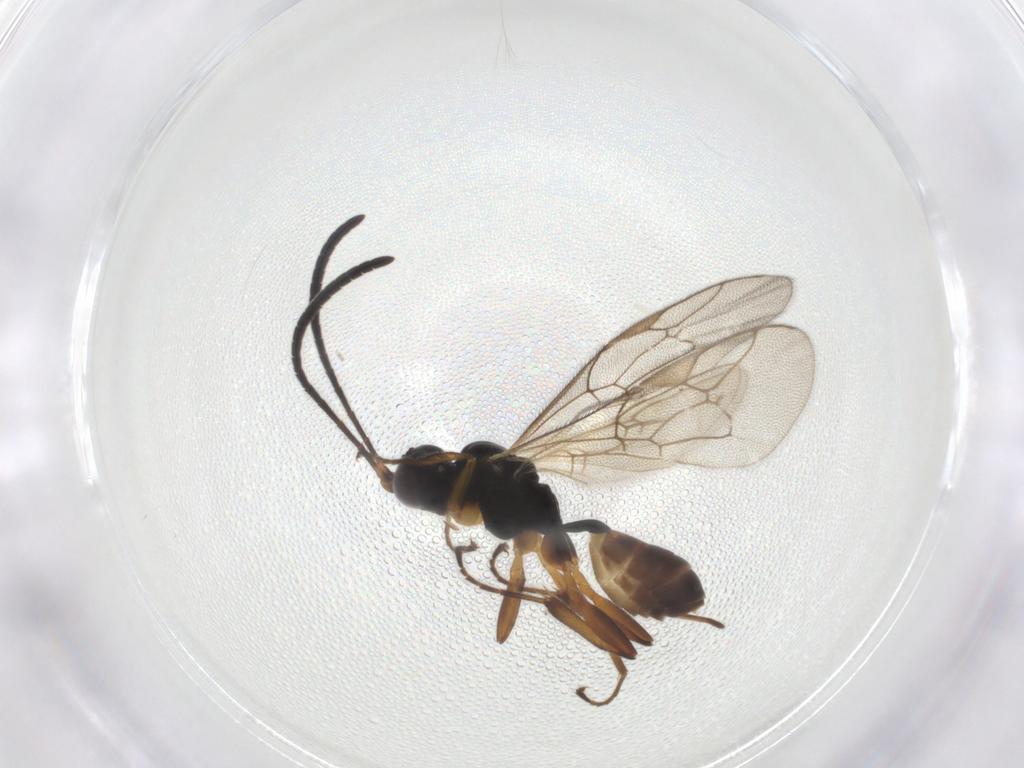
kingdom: Animalia
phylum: Arthropoda
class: Insecta
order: Hymenoptera
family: Ichneumonidae
